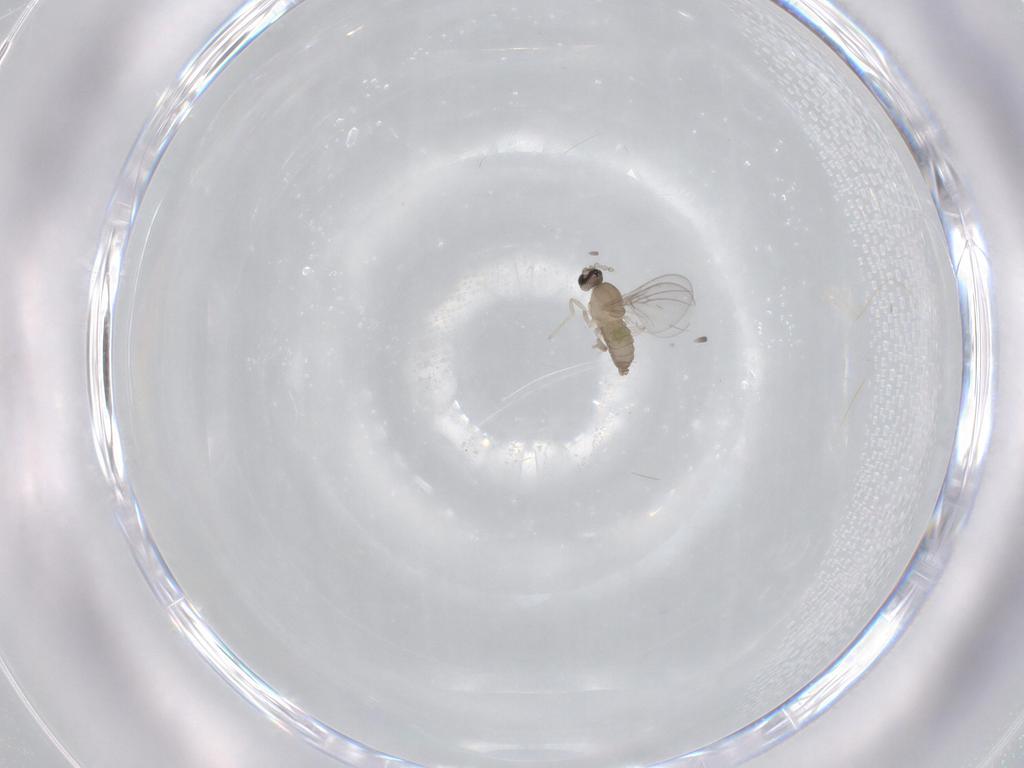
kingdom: Animalia
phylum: Arthropoda
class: Insecta
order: Diptera
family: Cecidomyiidae
